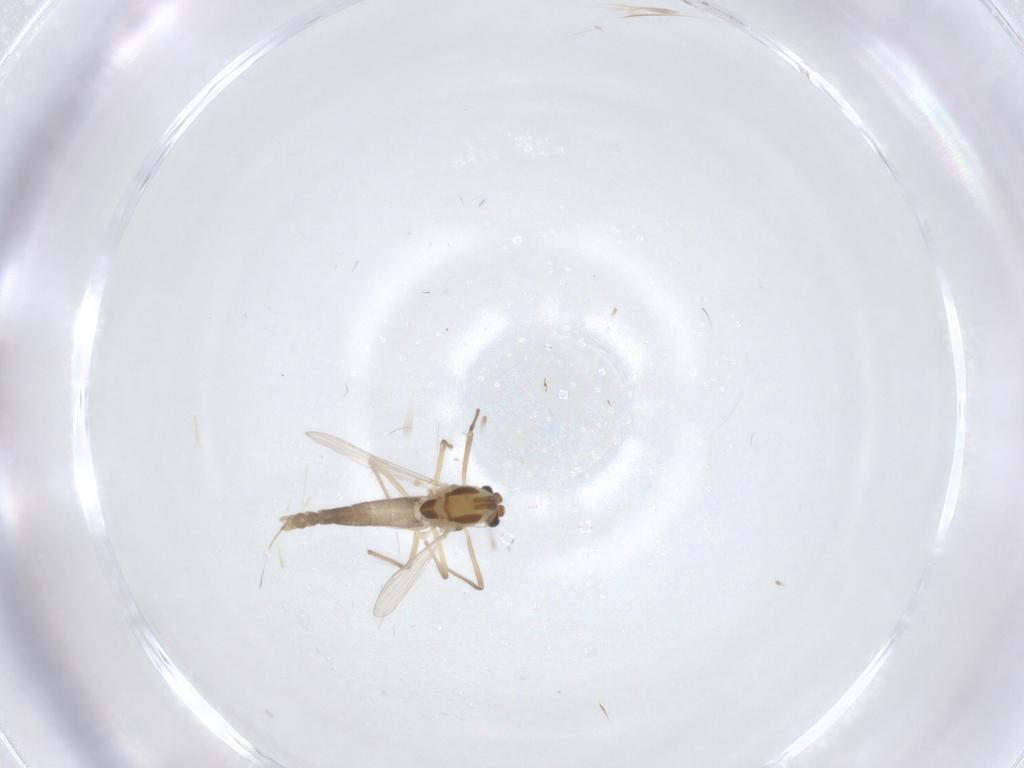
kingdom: Animalia
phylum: Arthropoda
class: Insecta
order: Diptera
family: Chironomidae
